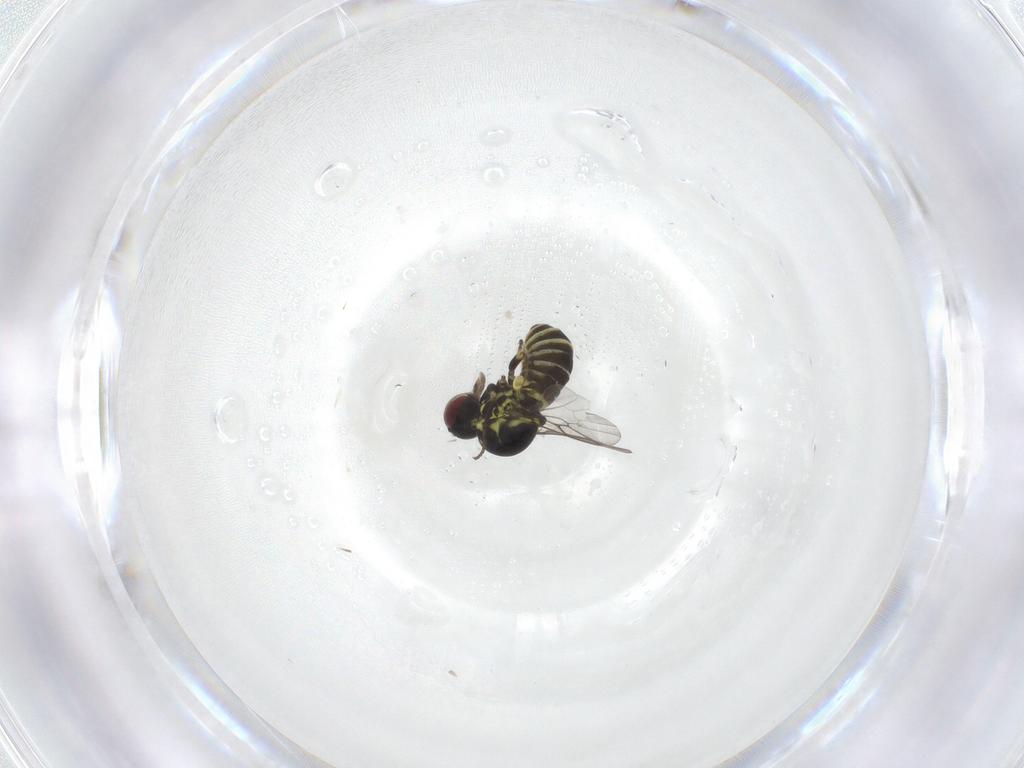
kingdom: Animalia
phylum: Arthropoda
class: Insecta
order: Diptera
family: Mythicomyiidae
